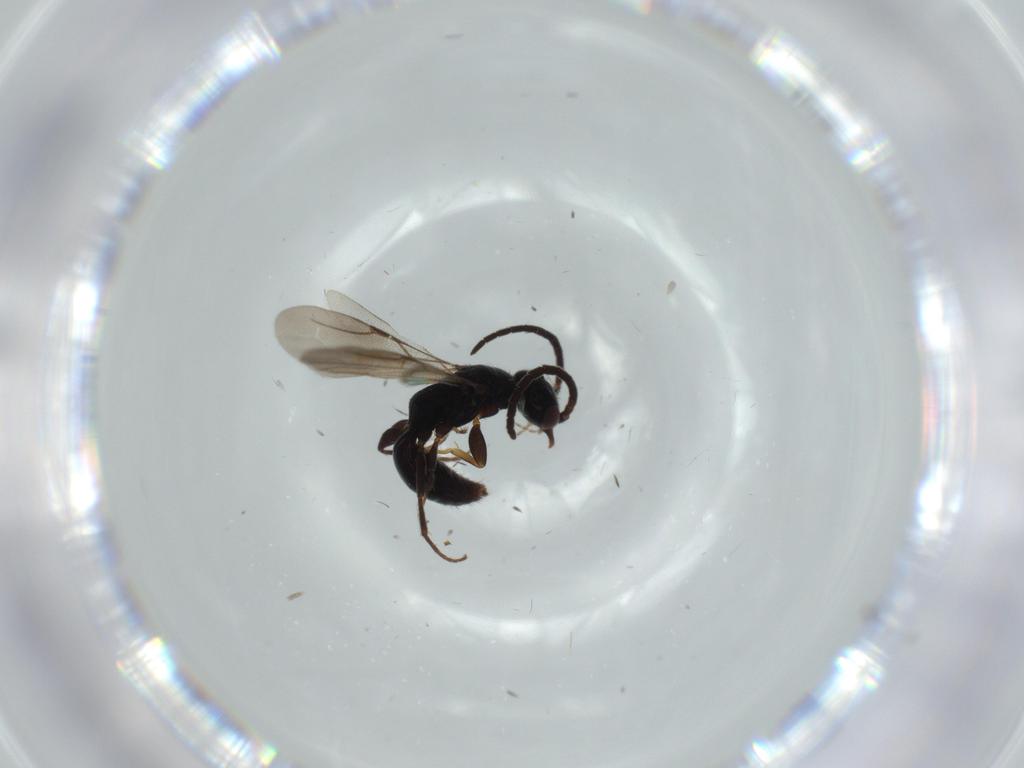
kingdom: Animalia
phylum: Arthropoda
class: Insecta
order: Hymenoptera
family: Bethylidae
